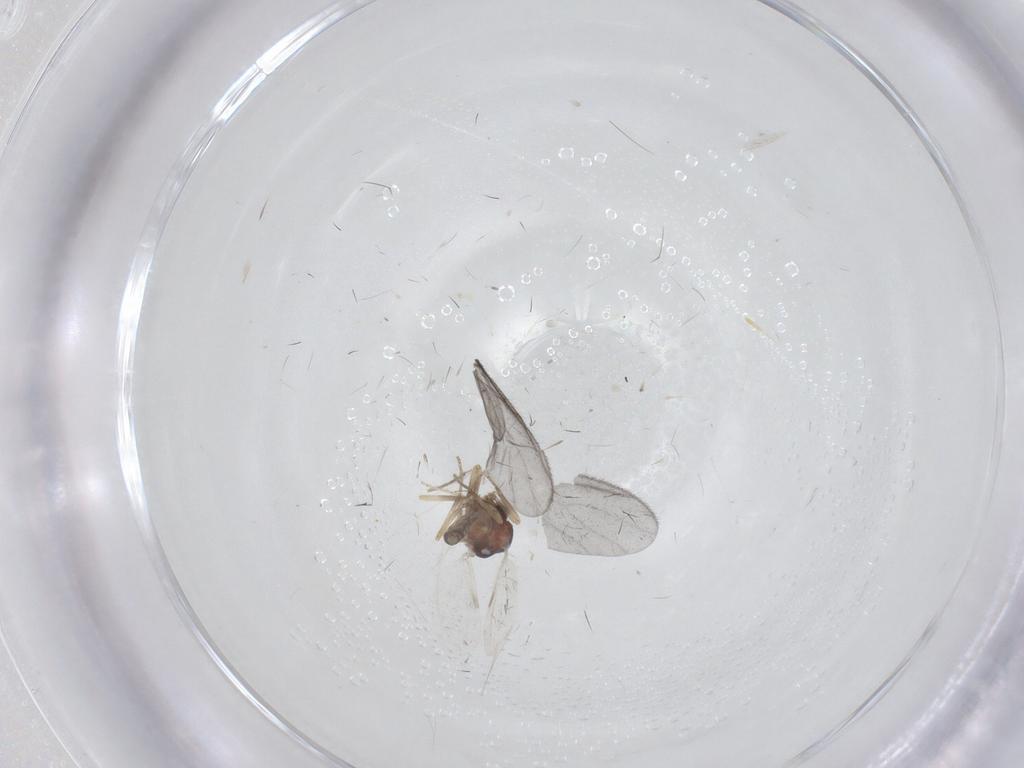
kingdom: Animalia
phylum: Arthropoda
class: Insecta
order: Diptera
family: Ceratopogonidae
